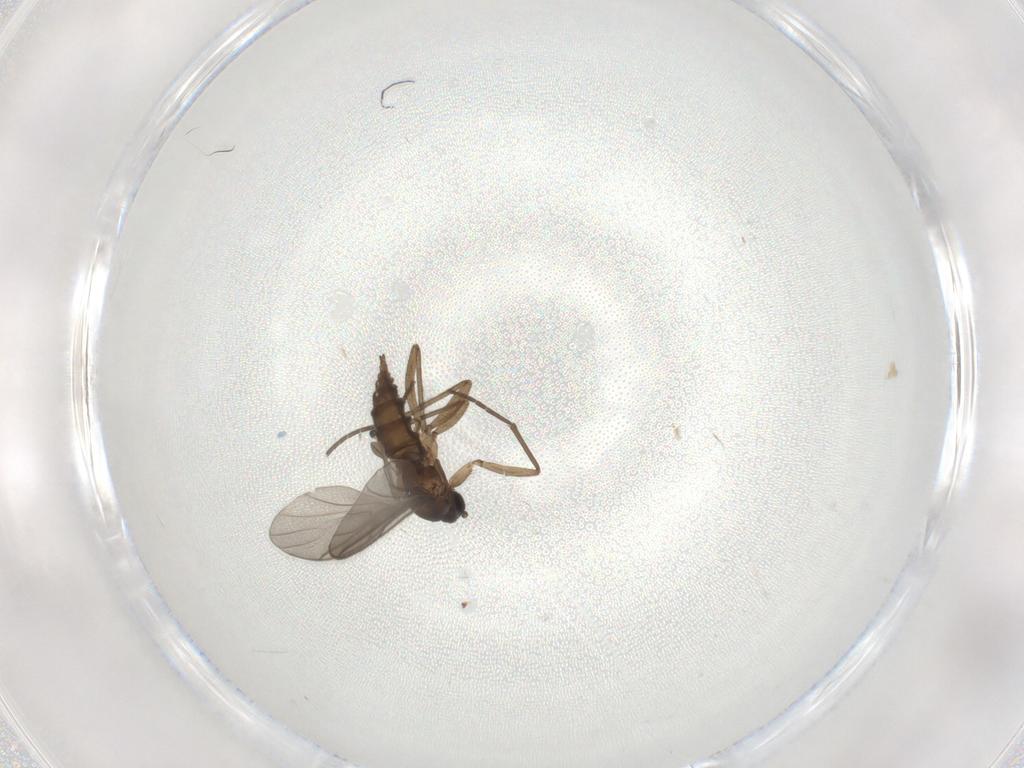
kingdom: Animalia
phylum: Arthropoda
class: Insecta
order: Diptera
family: Sciaridae
